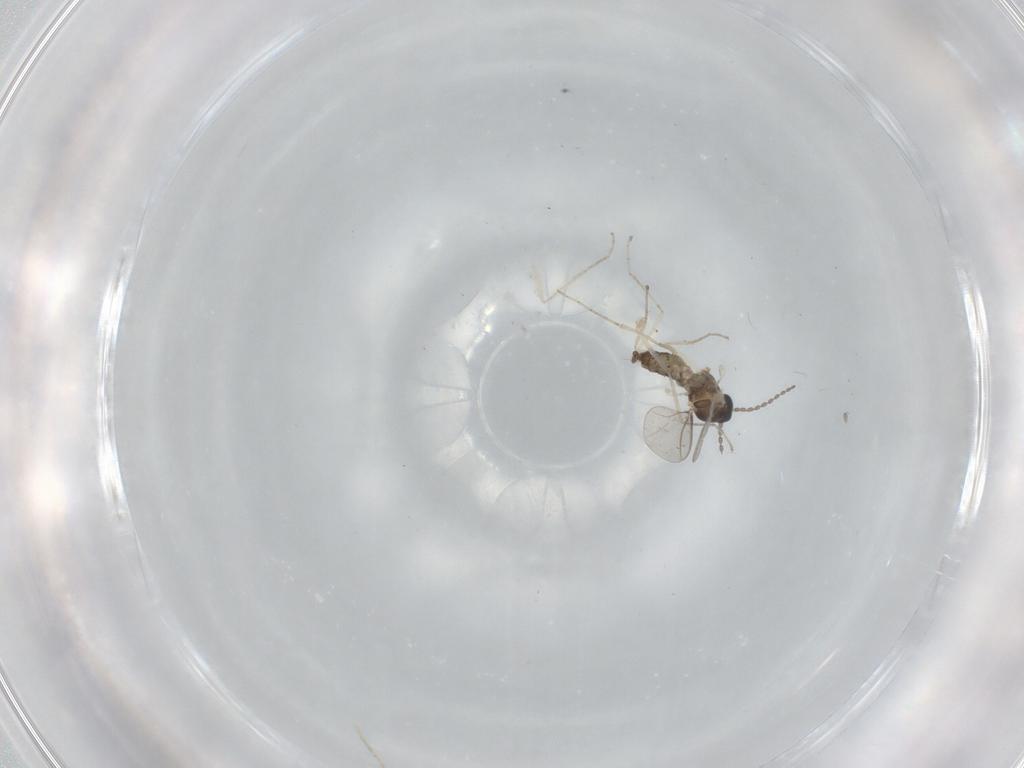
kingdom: Animalia
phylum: Arthropoda
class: Insecta
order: Diptera
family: Cecidomyiidae
